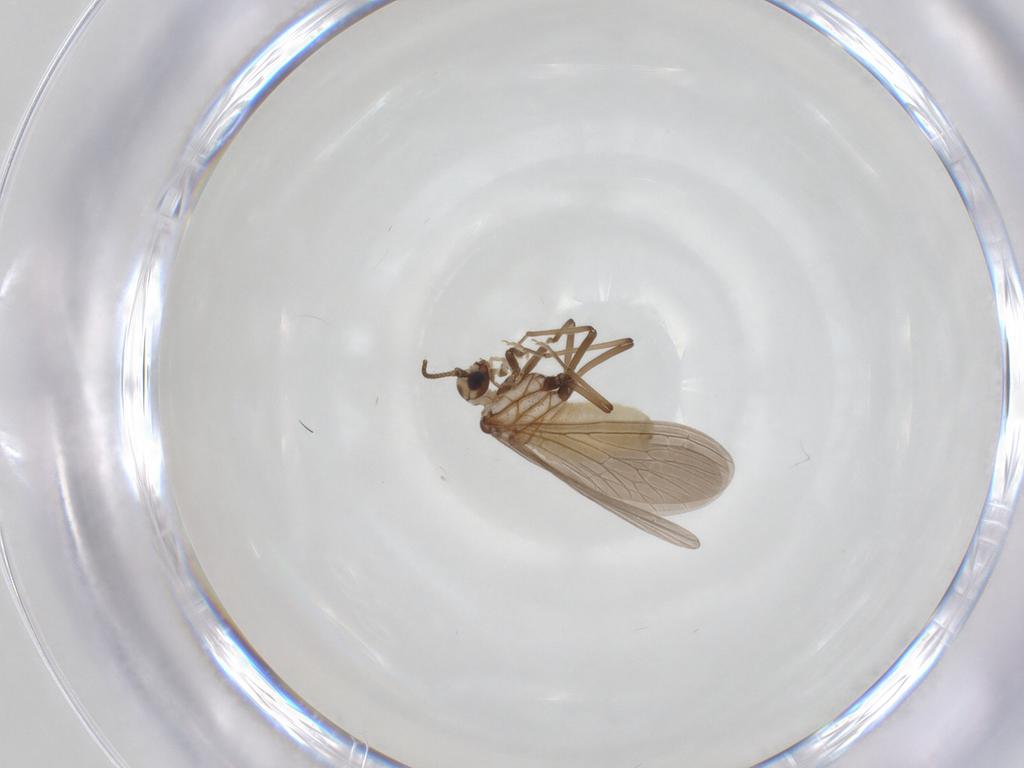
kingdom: Animalia
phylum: Arthropoda
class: Insecta
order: Neuroptera
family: Coniopterygidae
